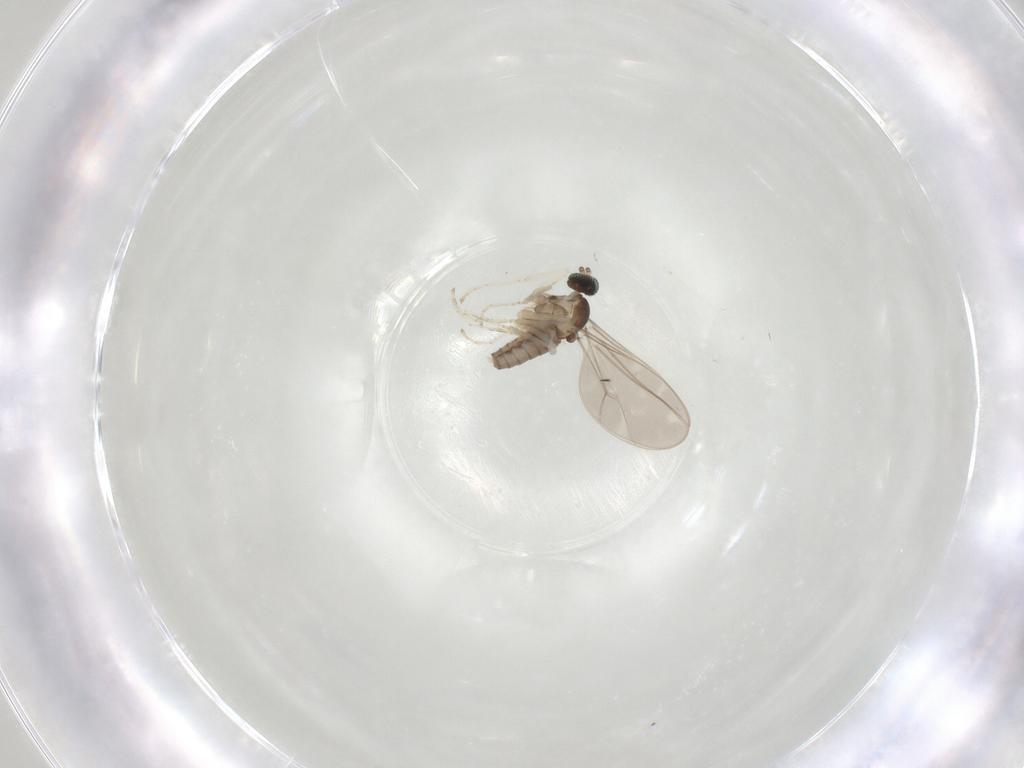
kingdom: Animalia
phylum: Arthropoda
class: Insecta
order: Diptera
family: Cecidomyiidae
